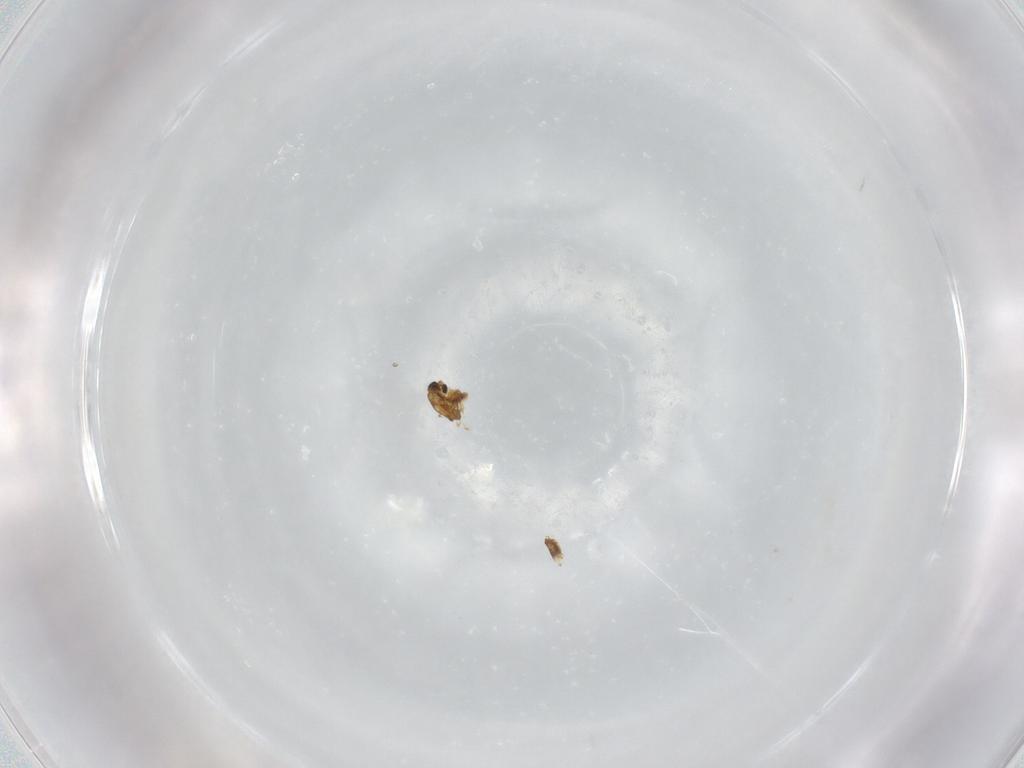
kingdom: Animalia
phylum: Arthropoda
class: Insecta
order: Diptera
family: Chironomidae
